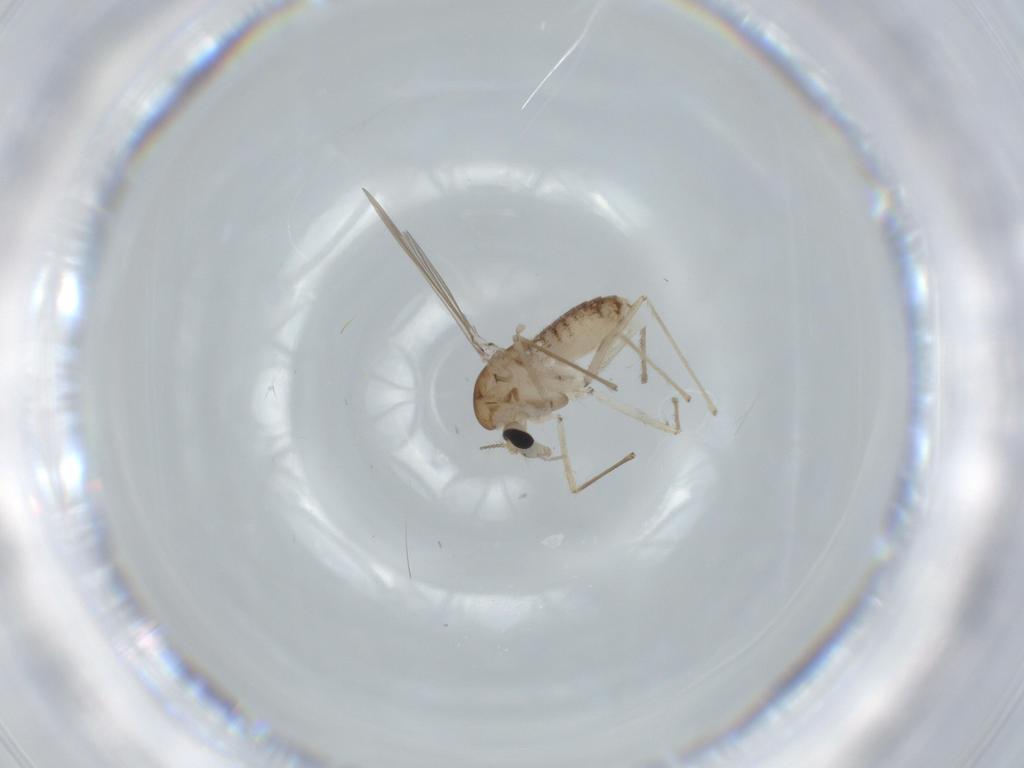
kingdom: Animalia
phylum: Arthropoda
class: Insecta
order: Diptera
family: Chironomidae
